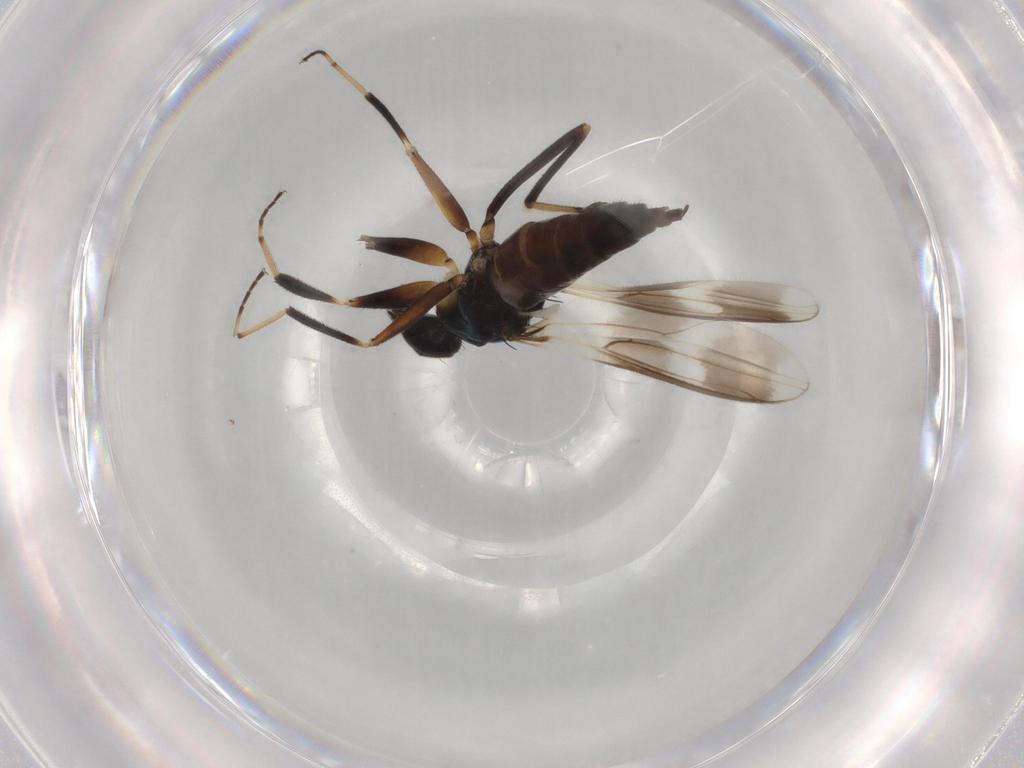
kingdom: Animalia
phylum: Arthropoda
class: Insecta
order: Diptera
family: Hybotidae
